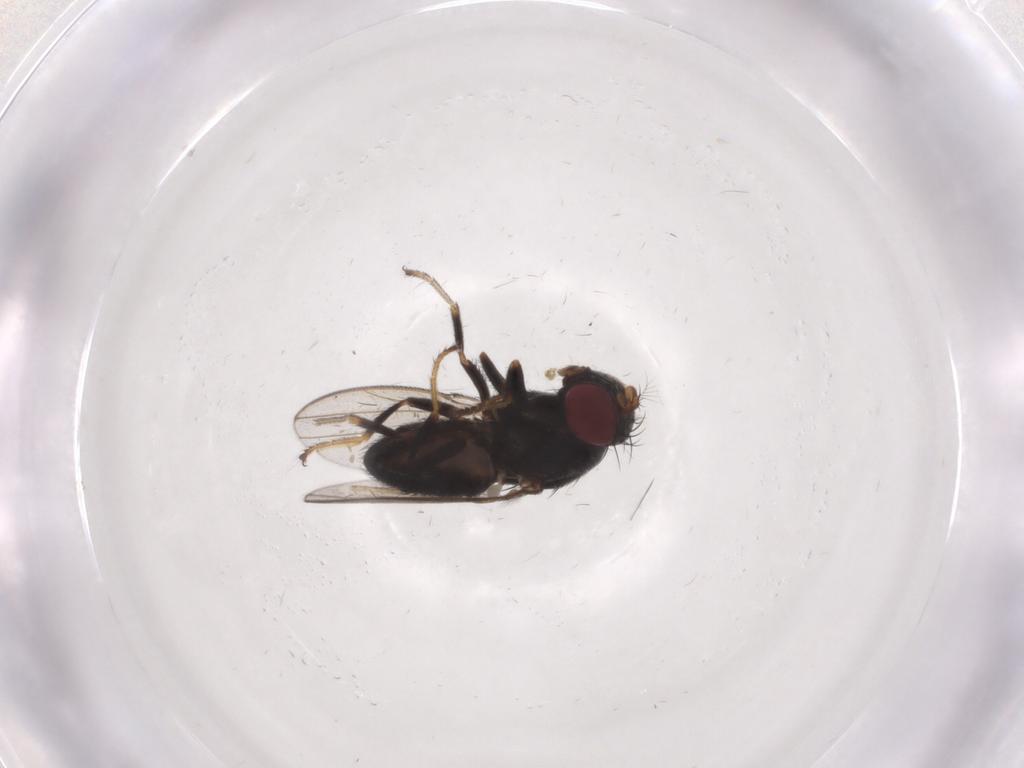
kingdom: Animalia
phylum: Arthropoda
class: Insecta
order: Diptera
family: Ephydridae
